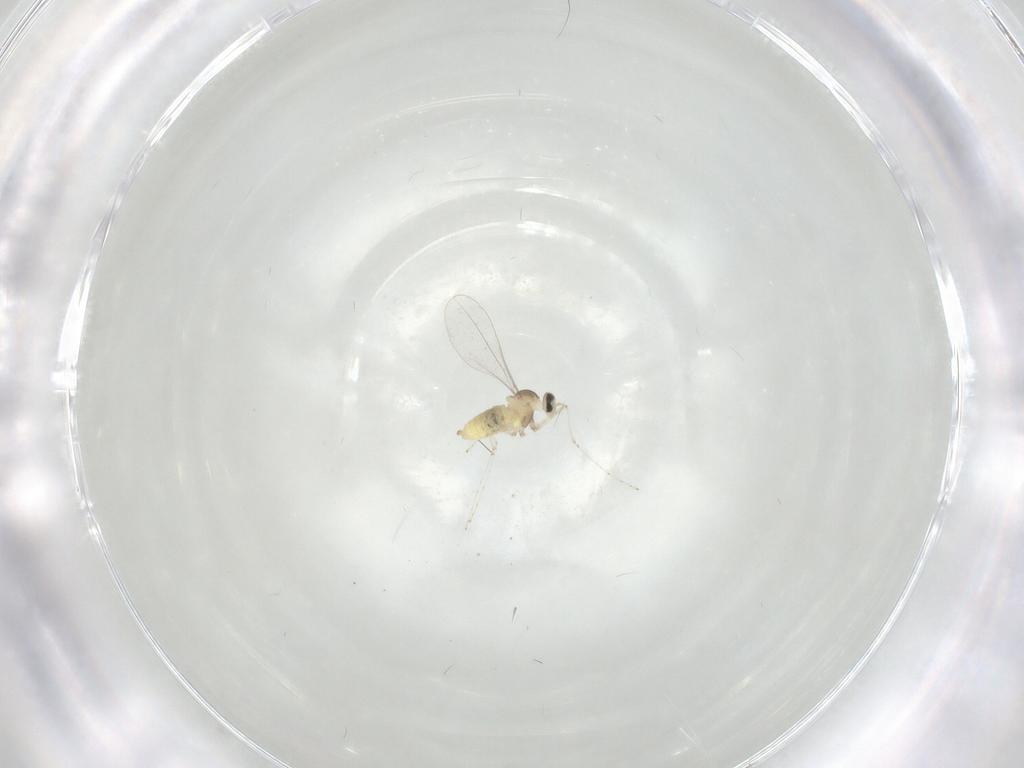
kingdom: Animalia
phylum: Arthropoda
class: Insecta
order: Diptera
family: Cecidomyiidae
